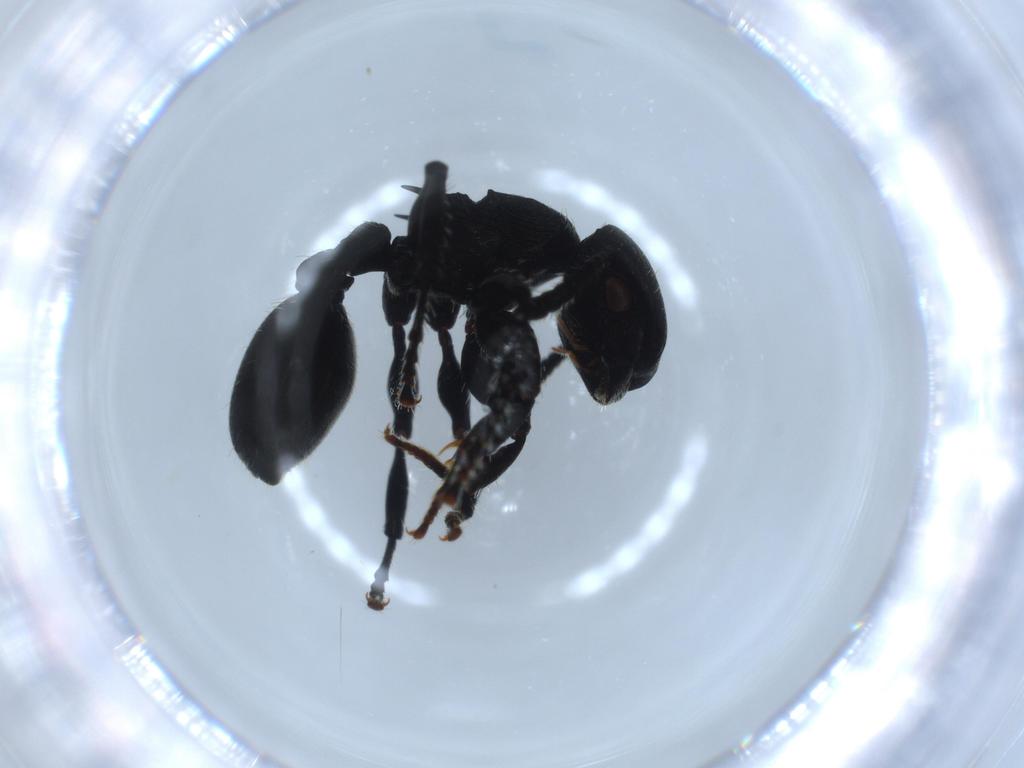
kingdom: Animalia
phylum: Arthropoda
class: Insecta
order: Hymenoptera
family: Formicidae
